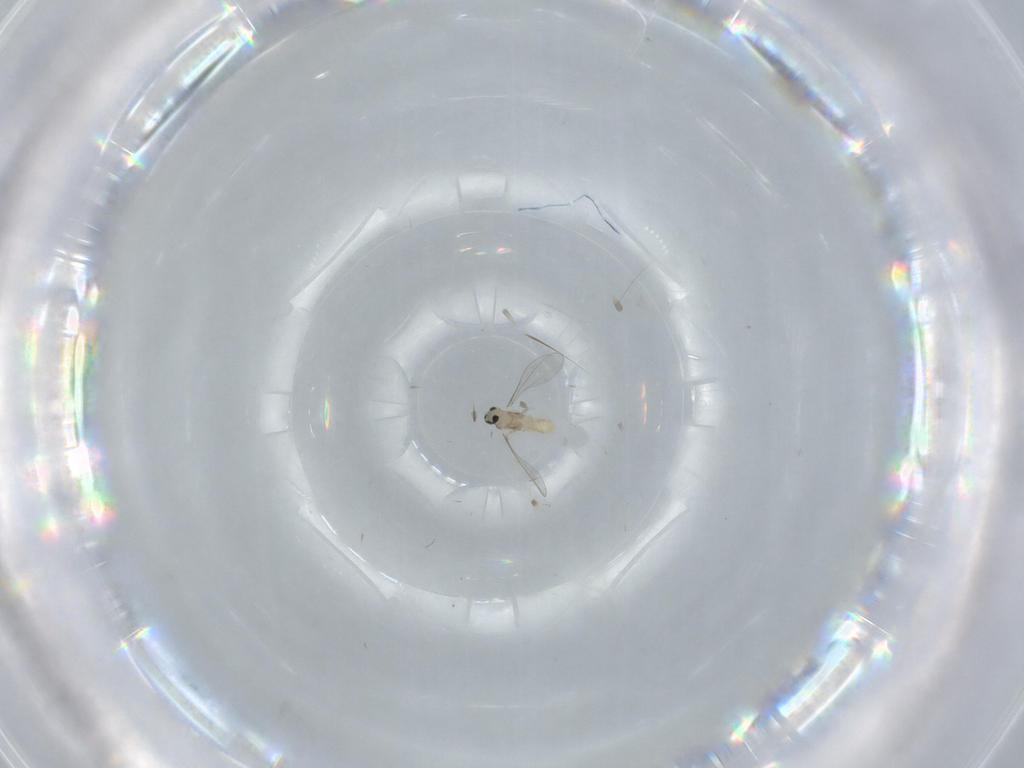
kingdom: Animalia
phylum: Arthropoda
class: Insecta
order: Diptera
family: Cecidomyiidae
